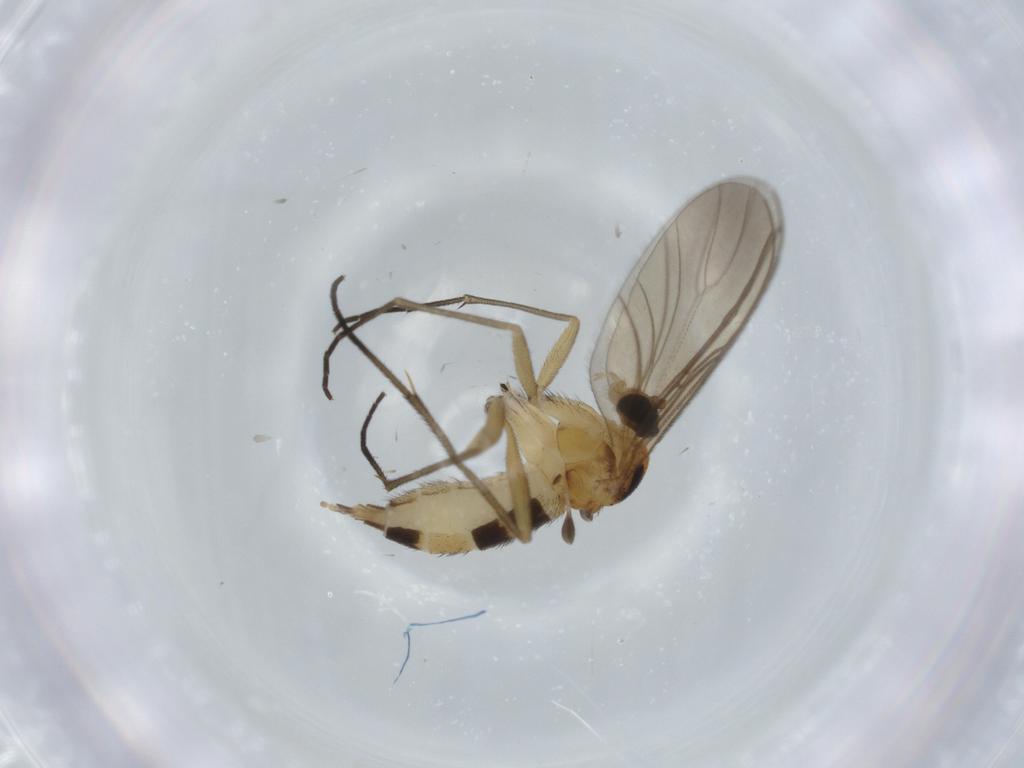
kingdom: Animalia
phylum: Arthropoda
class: Insecta
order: Diptera
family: Sciaridae
